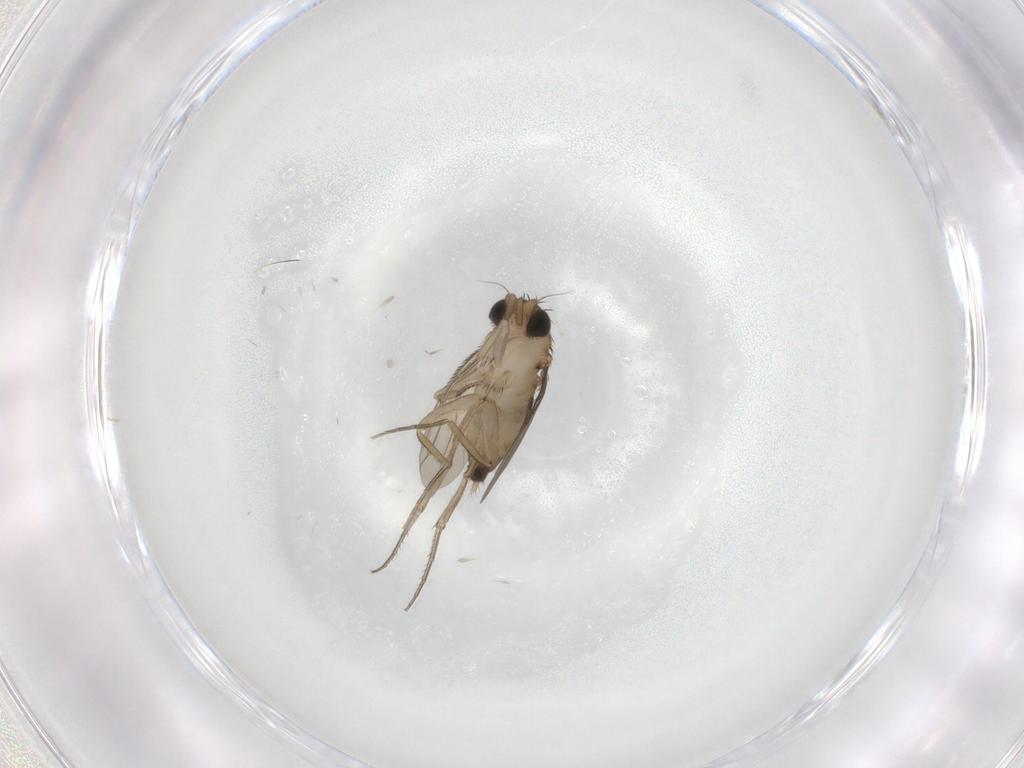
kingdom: Animalia
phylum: Arthropoda
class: Insecta
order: Diptera
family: Phoridae
